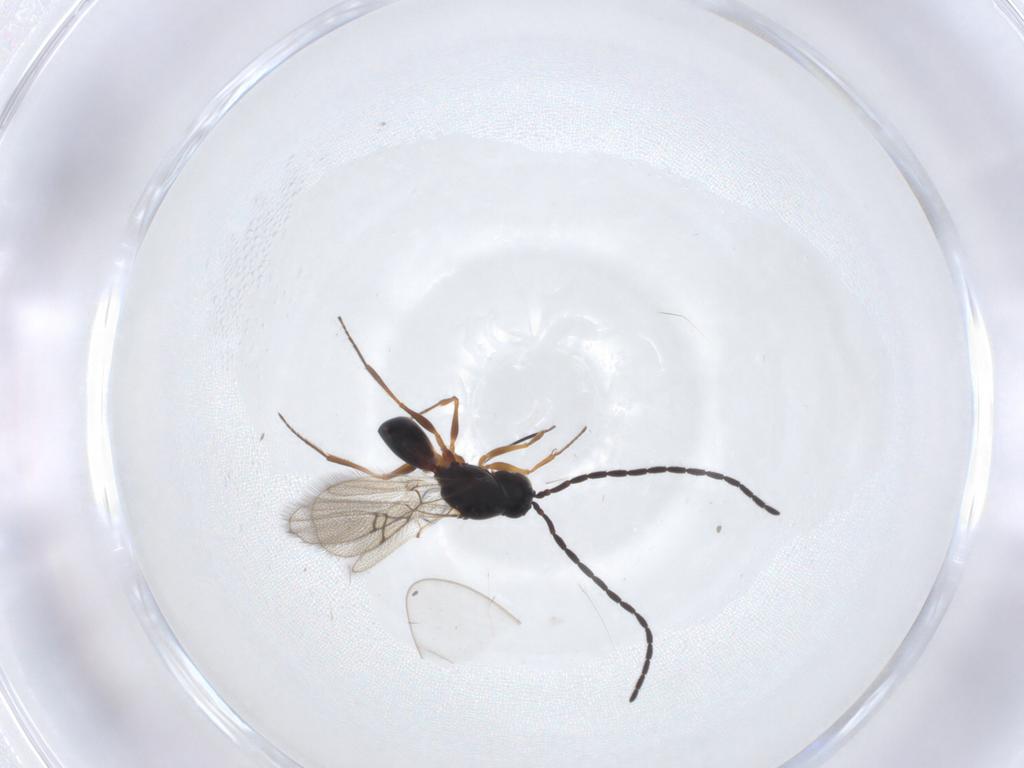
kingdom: Animalia
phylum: Arthropoda
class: Insecta
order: Hymenoptera
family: Figitidae
